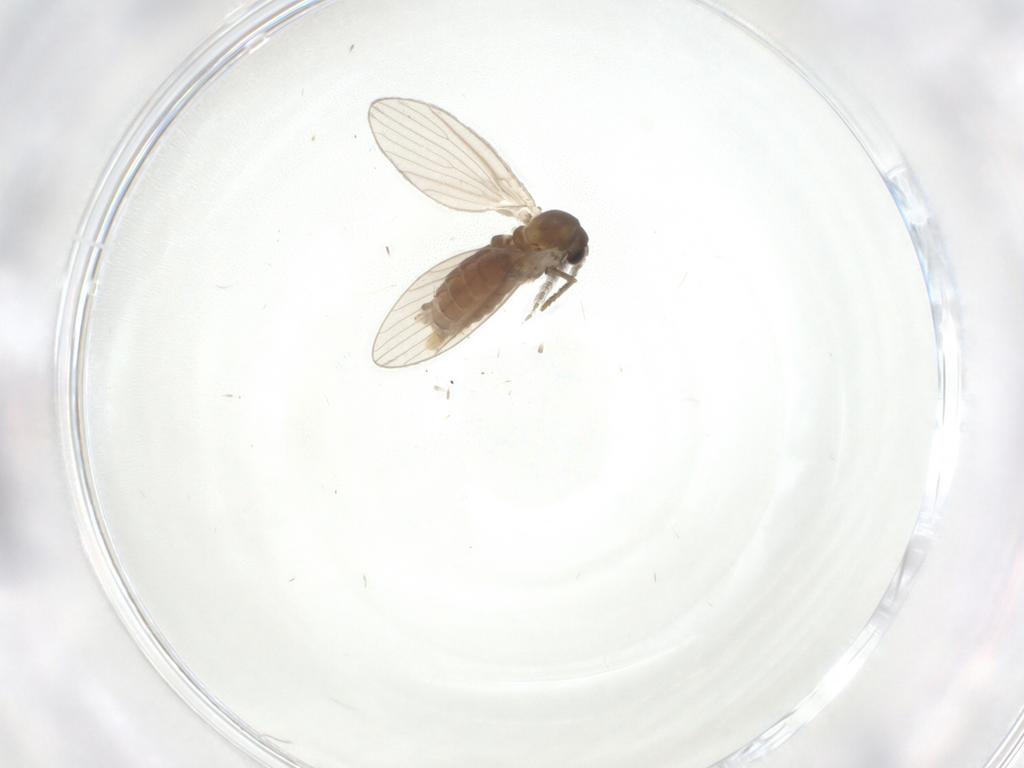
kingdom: Animalia
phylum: Arthropoda
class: Insecta
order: Diptera
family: Psychodidae
